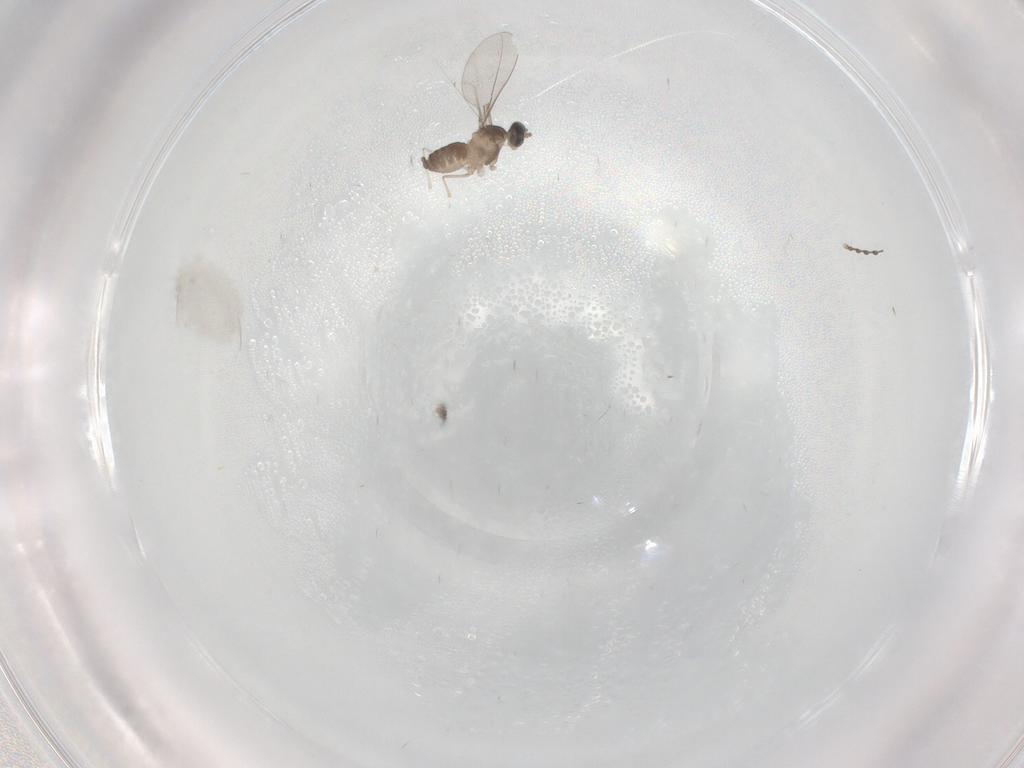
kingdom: Animalia
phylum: Arthropoda
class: Insecta
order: Diptera
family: Cecidomyiidae
